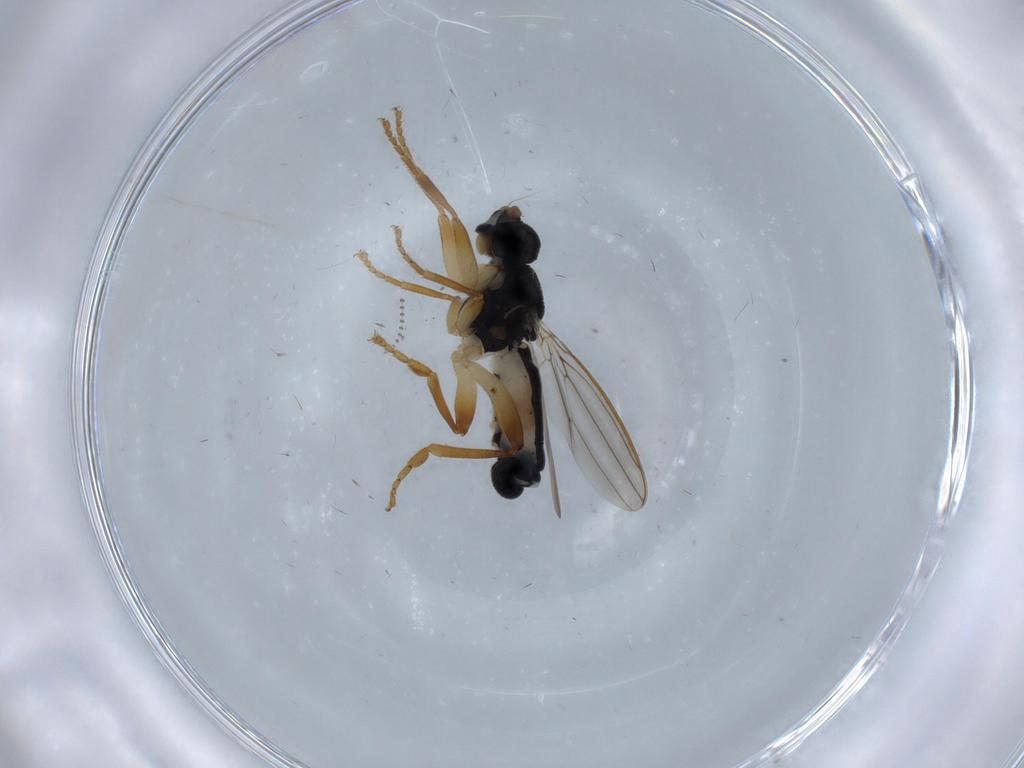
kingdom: Animalia
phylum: Arthropoda
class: Insecta
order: Diptera
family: Sphaeroceridae
